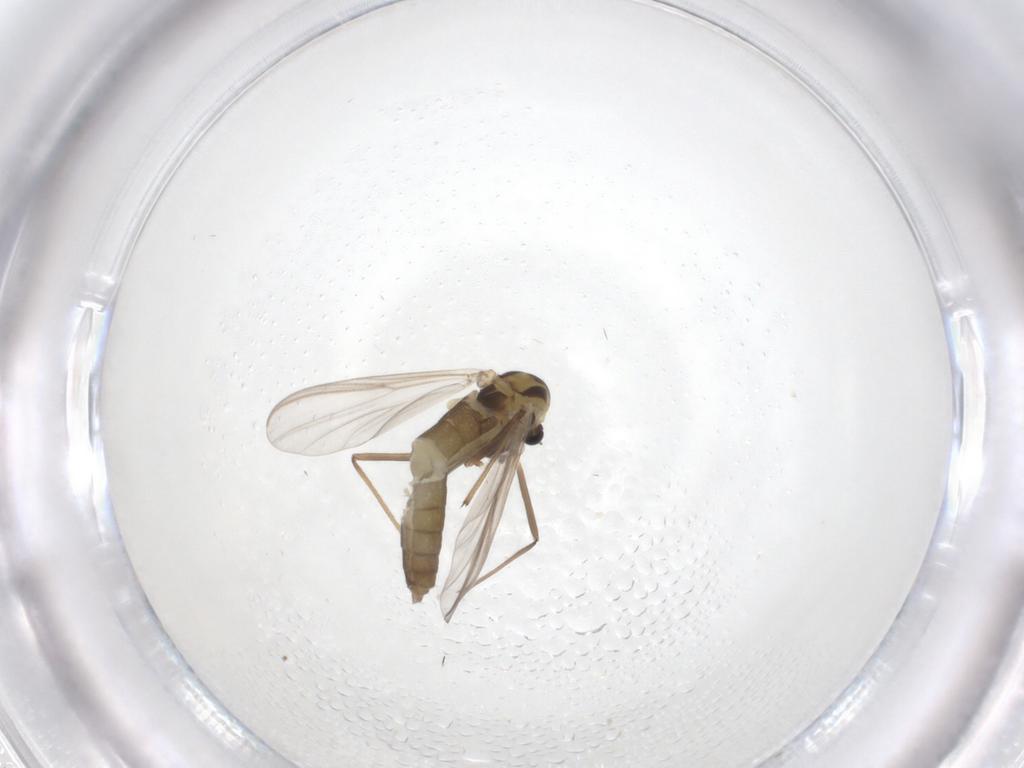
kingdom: Animalia
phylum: Arthropoda
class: Insecta
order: Diptera
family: Chironomidae
